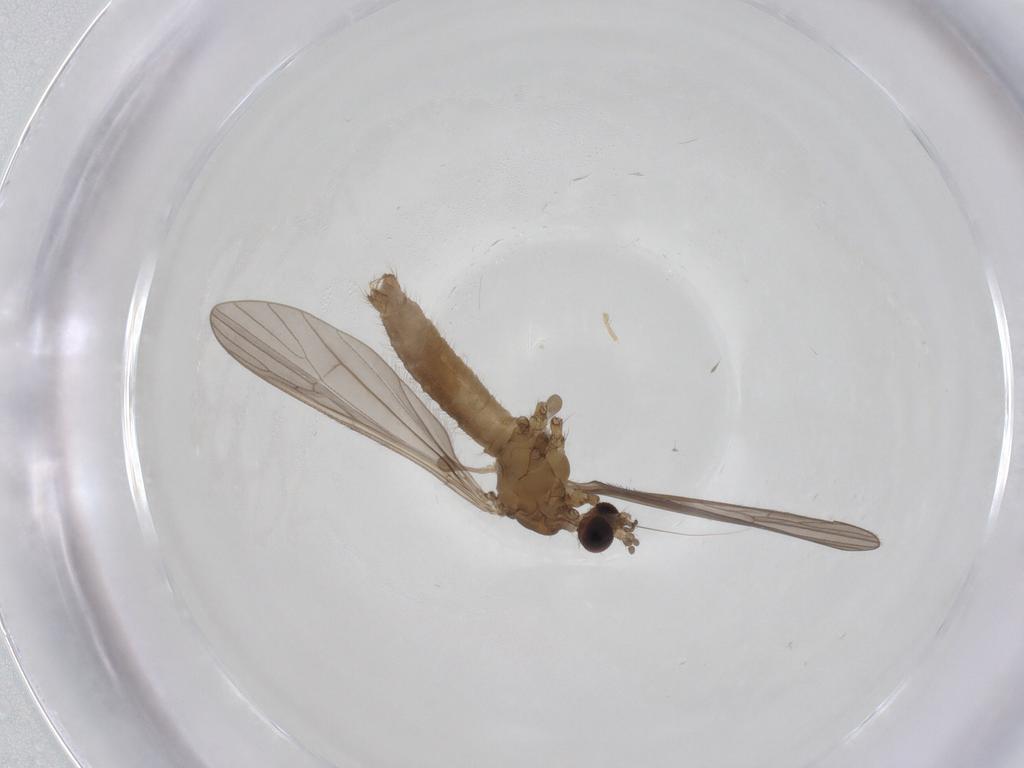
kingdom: Animalia
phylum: Arthropoda
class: Insecta
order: Diptera
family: Limoniidae
